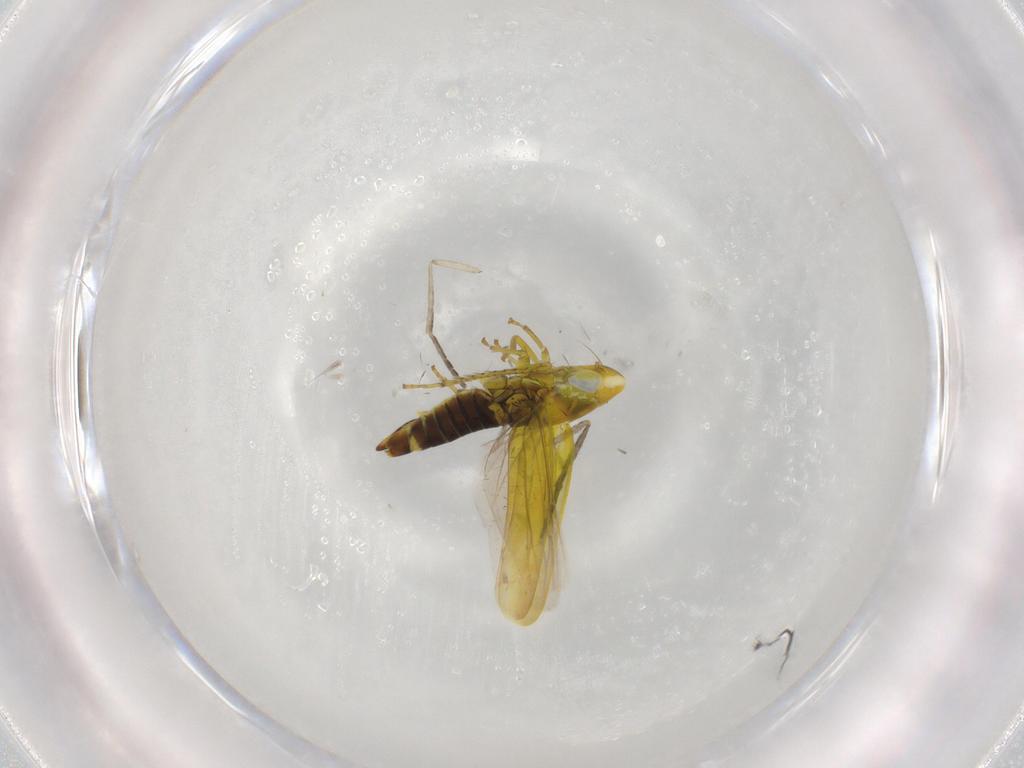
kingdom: Animalia
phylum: Arthropoda
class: Insecta
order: Hemiptera
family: Cicadellidae
